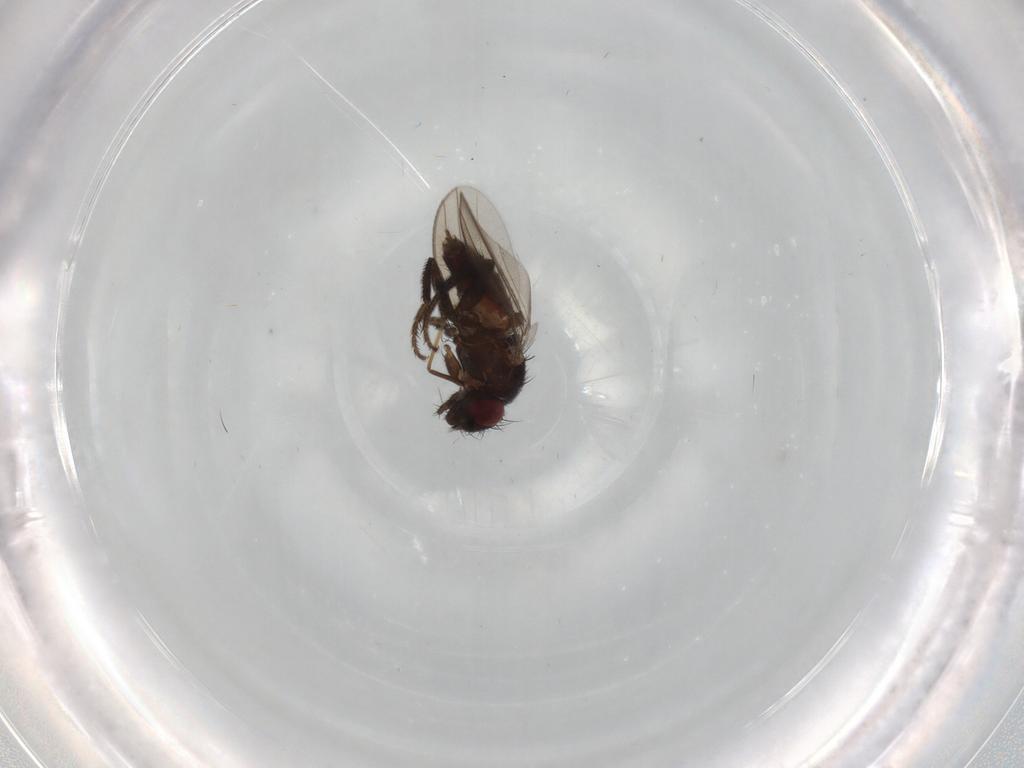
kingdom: Animalia
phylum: Arthropoda
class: Insecta
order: Diptera
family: Milichiidae
